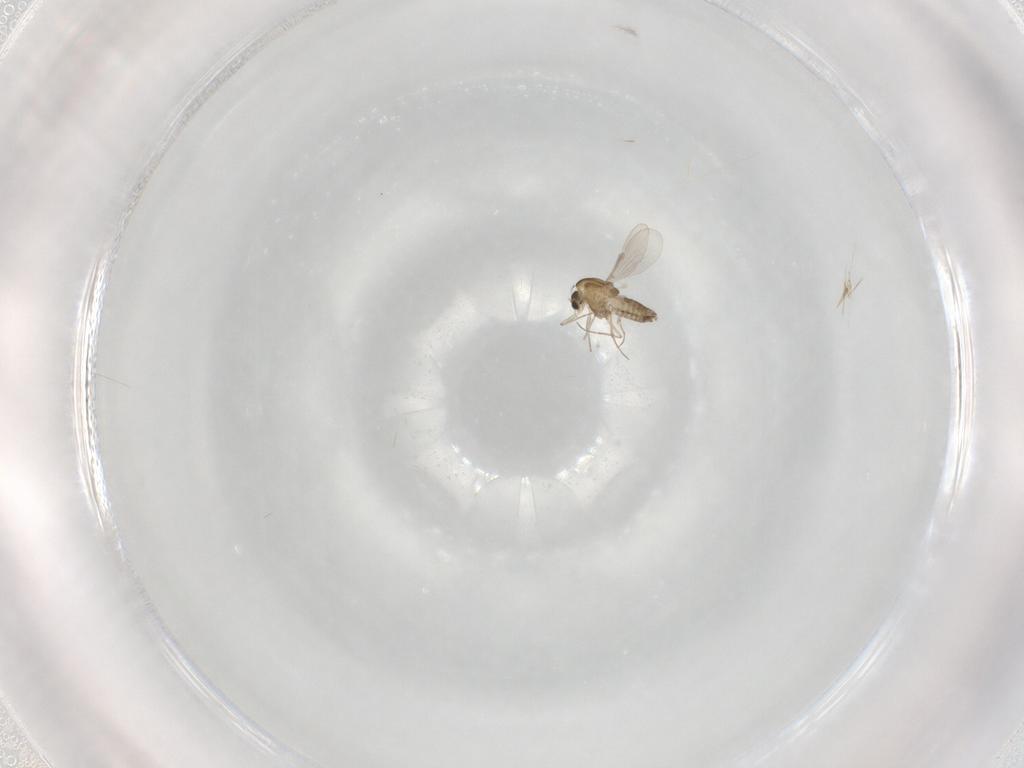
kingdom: Animalia
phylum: Arthropoda
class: Insecta
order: Diptera
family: Chironomidae
